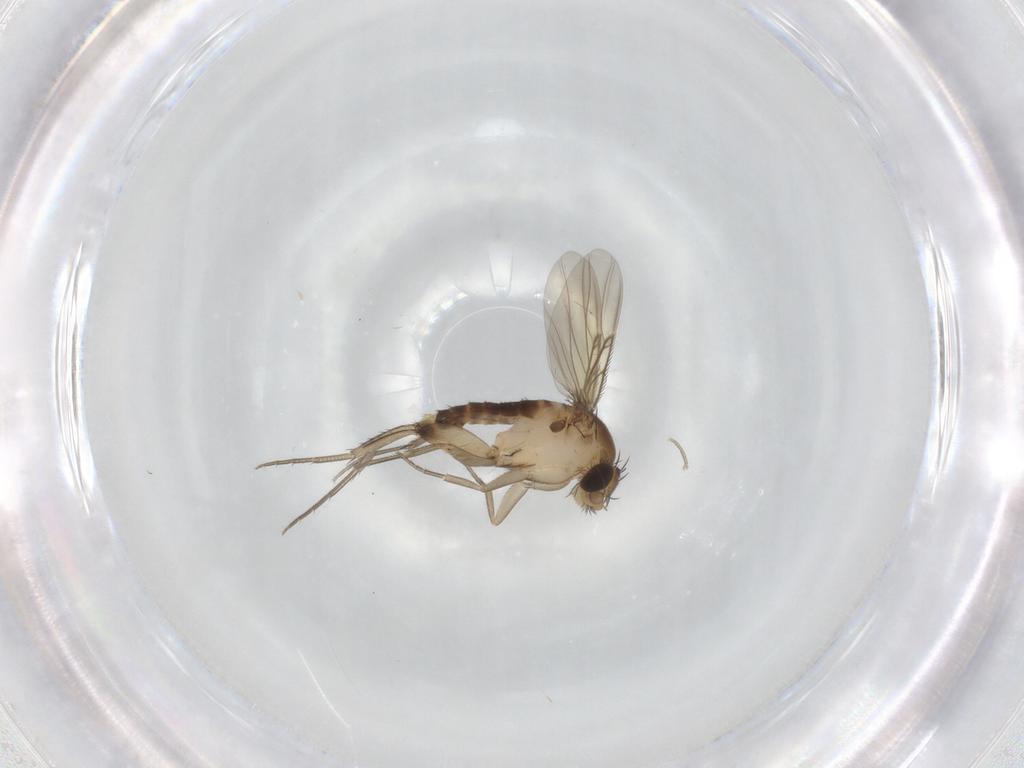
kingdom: Animalia
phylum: Arthropoda
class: Insecta
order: Diptera
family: Phoridae
